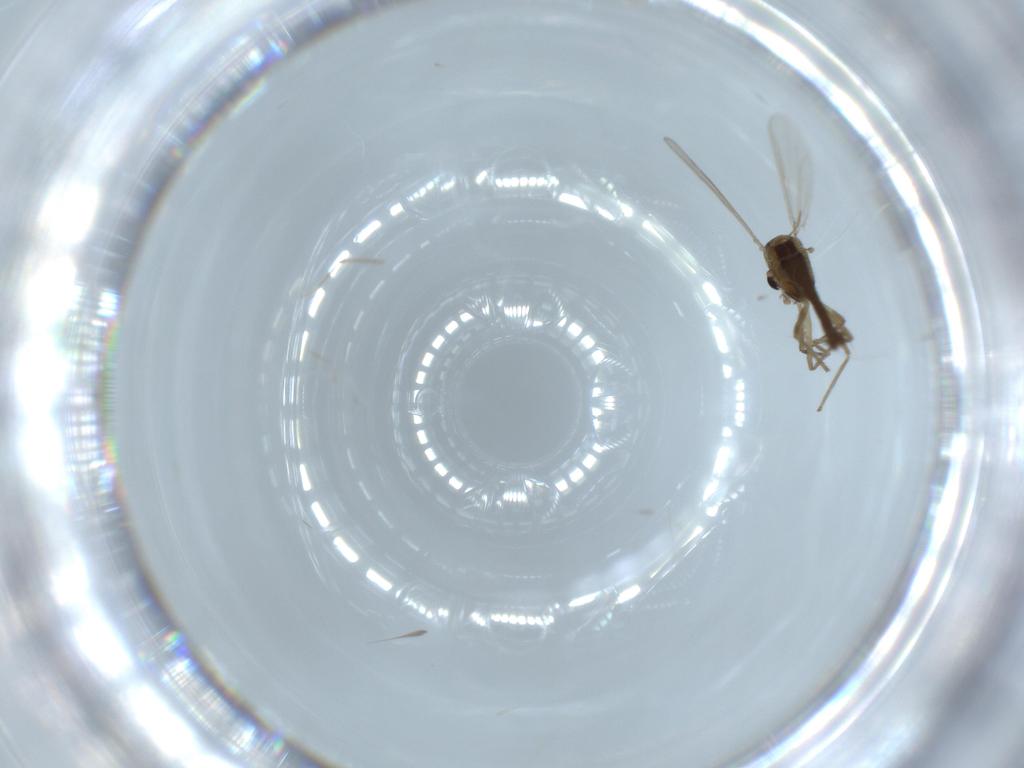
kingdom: Animalia
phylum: Arthropoda
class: Insecta
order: Diptera
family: Chironomidae
